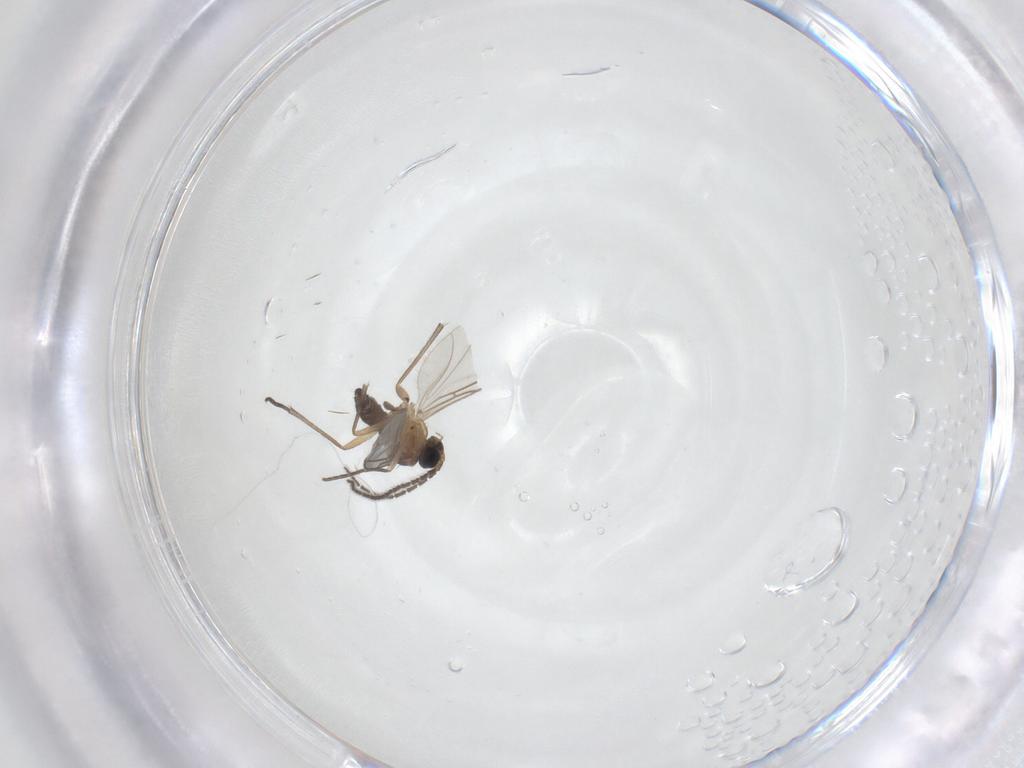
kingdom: Animalia
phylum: Arthropoda
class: Insecta
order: Diptera
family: Sciaridae
